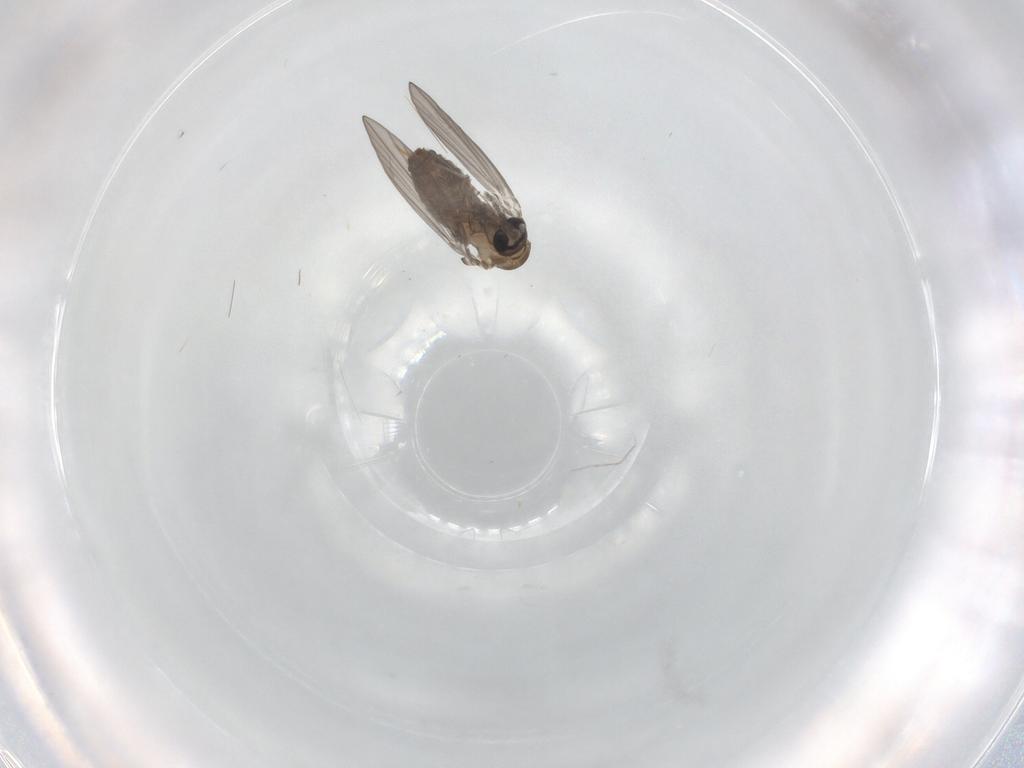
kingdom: Animalia
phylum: Arthropoda
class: Insecta
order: Diptera
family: Psychodidae
